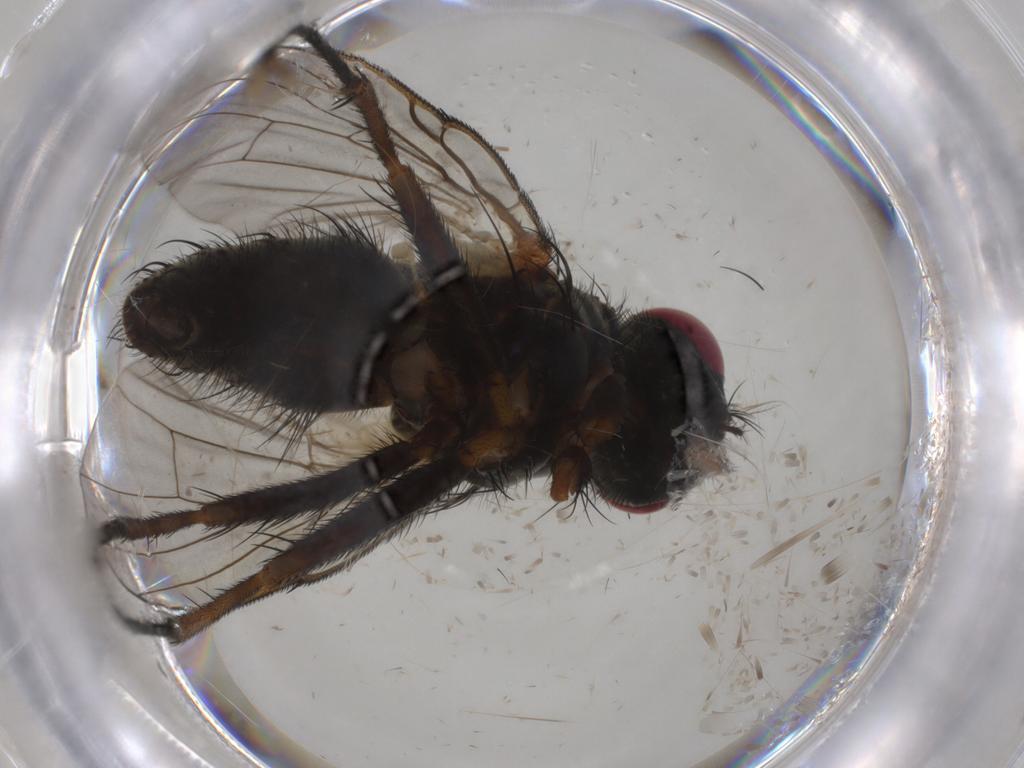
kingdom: Animalia
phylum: Arthropoda
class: Insecta
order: Diptera
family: Muscidae
